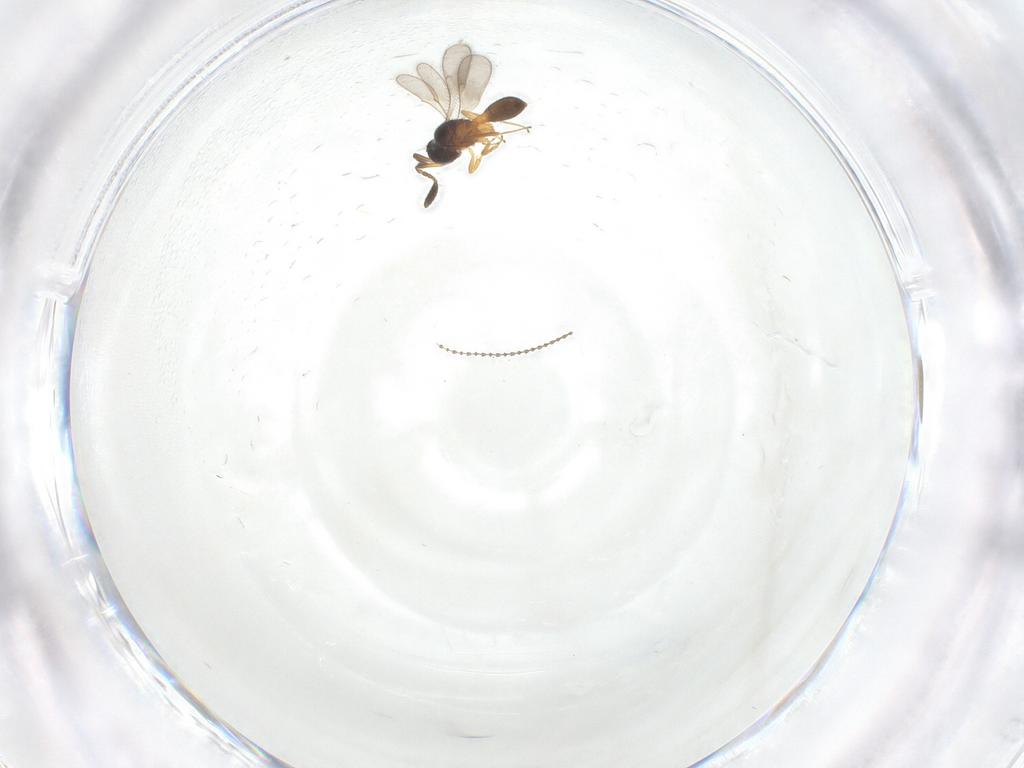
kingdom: Animalia
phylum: Arthropoda
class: Insecta
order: Hymenoptera
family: Scelionidae
